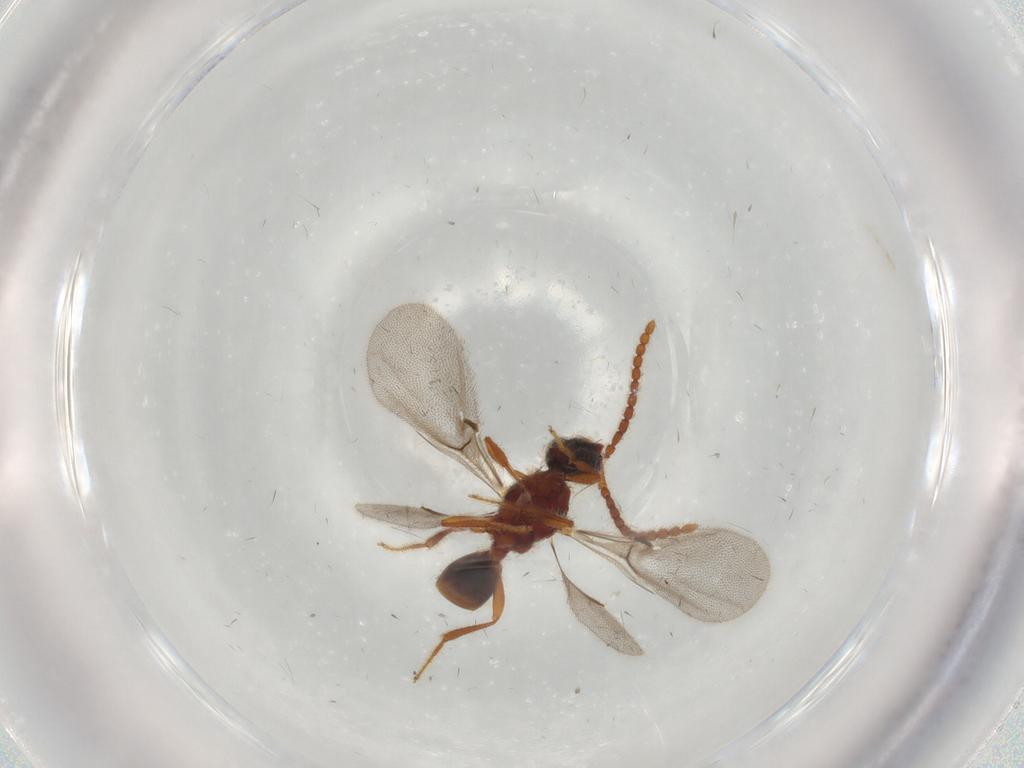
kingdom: Animalia
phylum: Arthropoda
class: Insecta
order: Hymenoptera
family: Diapriidae
